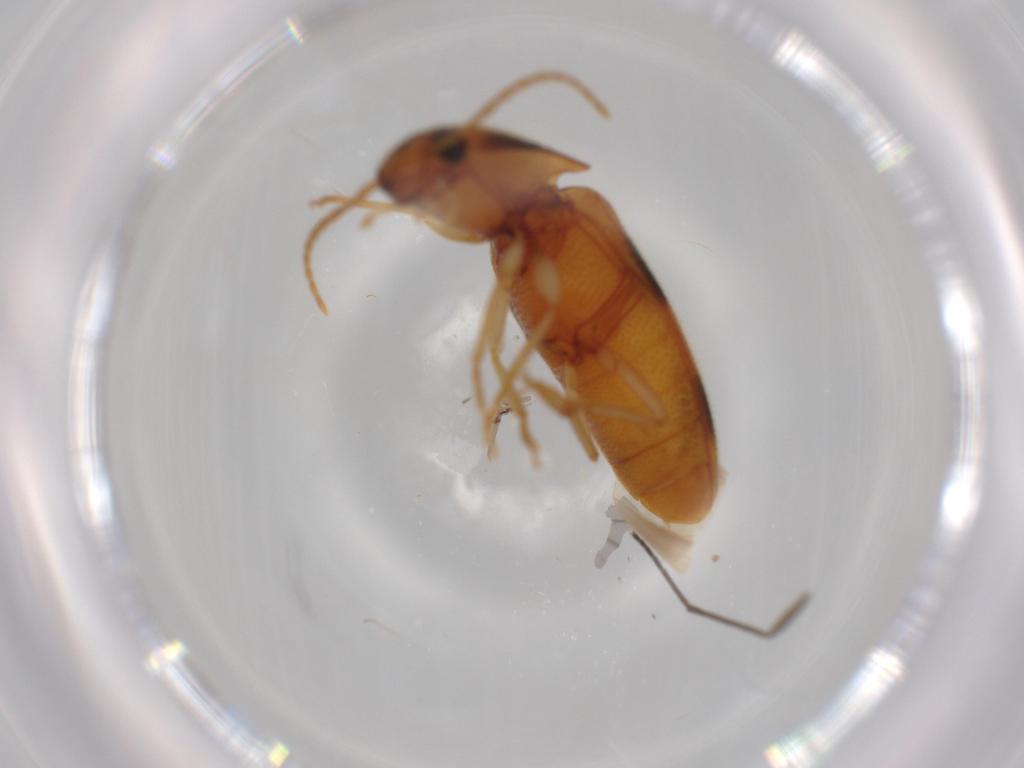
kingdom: Animalia
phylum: Arthropoda
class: Insecta
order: Coleoptera
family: Elateridae
